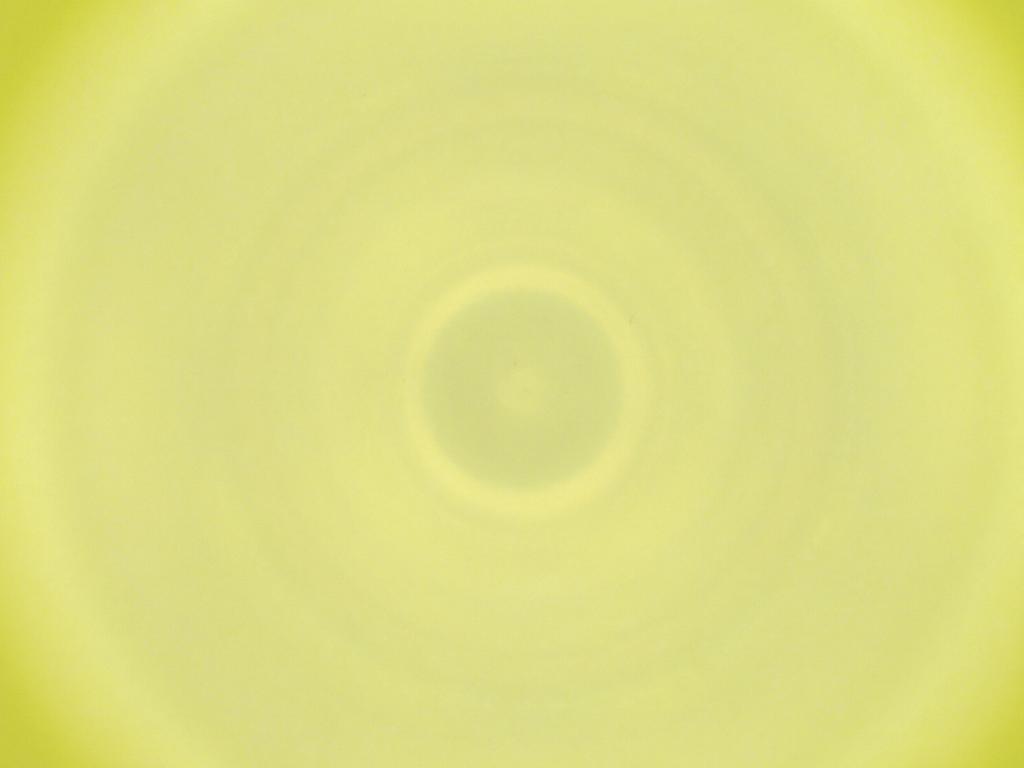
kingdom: Animalia
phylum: Arthropoda
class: Insecta
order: Diptera
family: Cecidomyiidae
